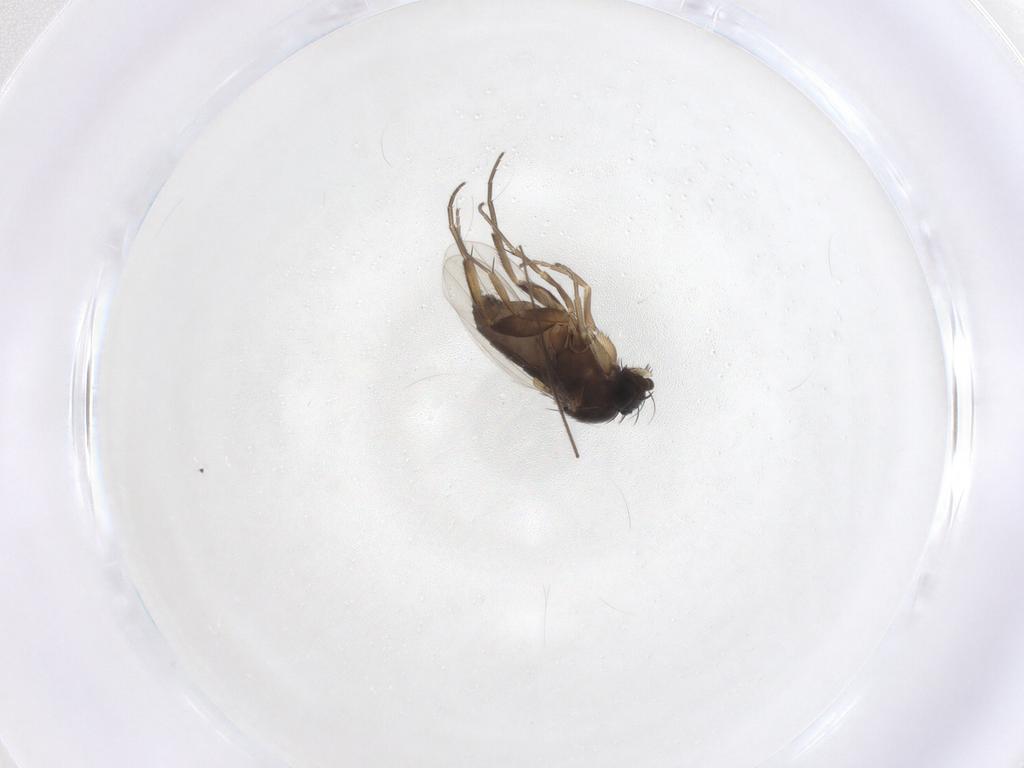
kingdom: Animalia
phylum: Arthropoda
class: Insecta
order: Diptera
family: Phoridae
